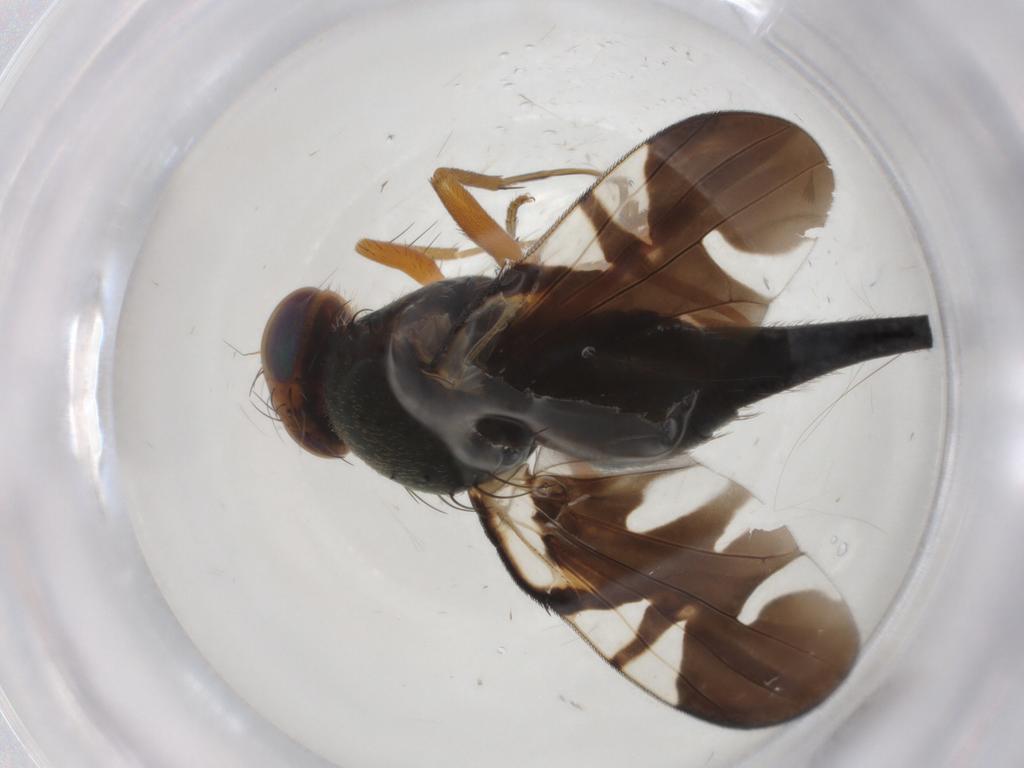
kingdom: Animalia
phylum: Arthropoda
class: Insecta
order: Diptera
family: Tephritidae
